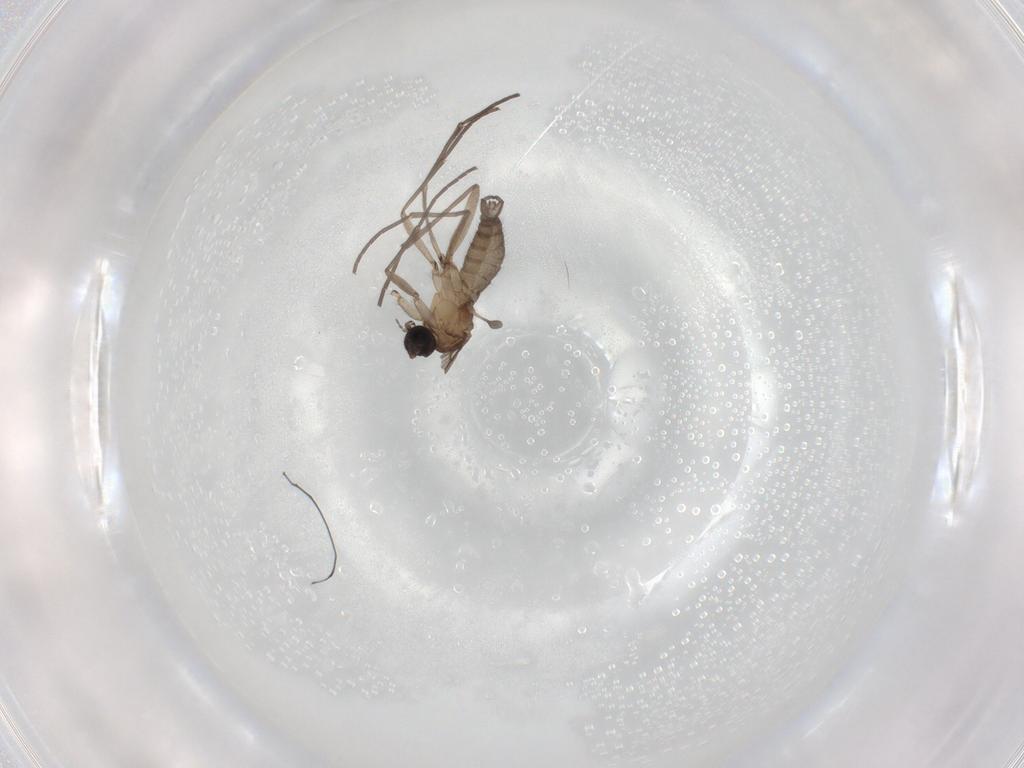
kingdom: Animalia
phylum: Arthropoda
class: Insecta
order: Diptera
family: Sciaridae
